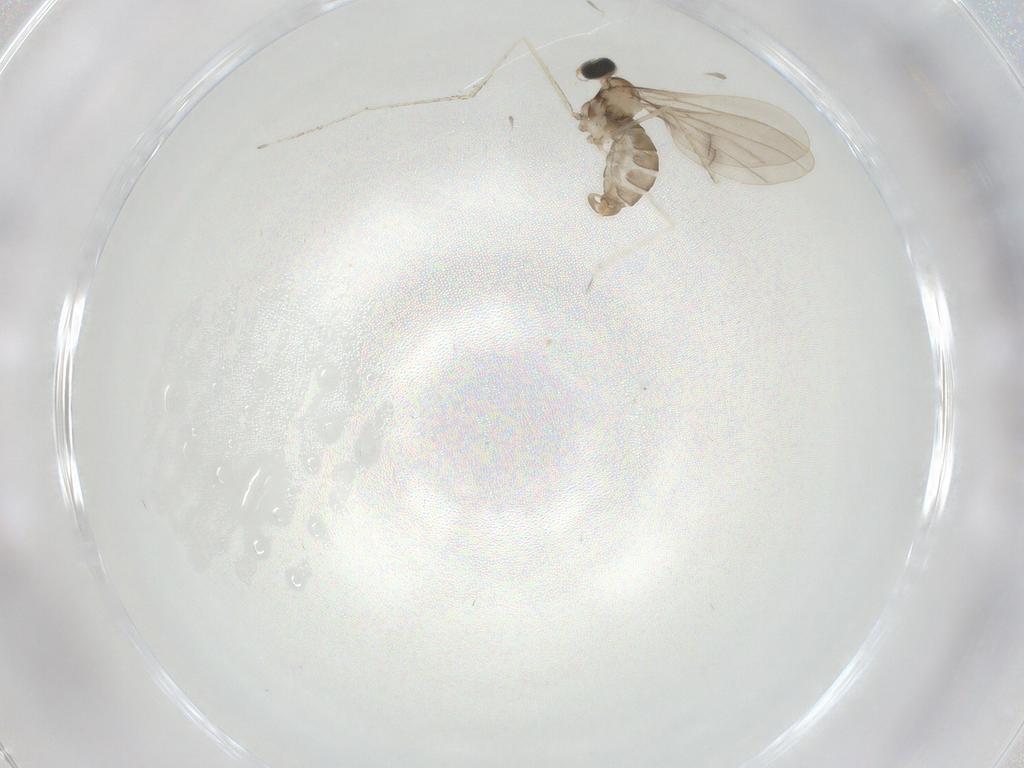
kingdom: Animalia
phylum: Arthropoda
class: Insecta
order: Diptera
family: Cecidomyiidae
